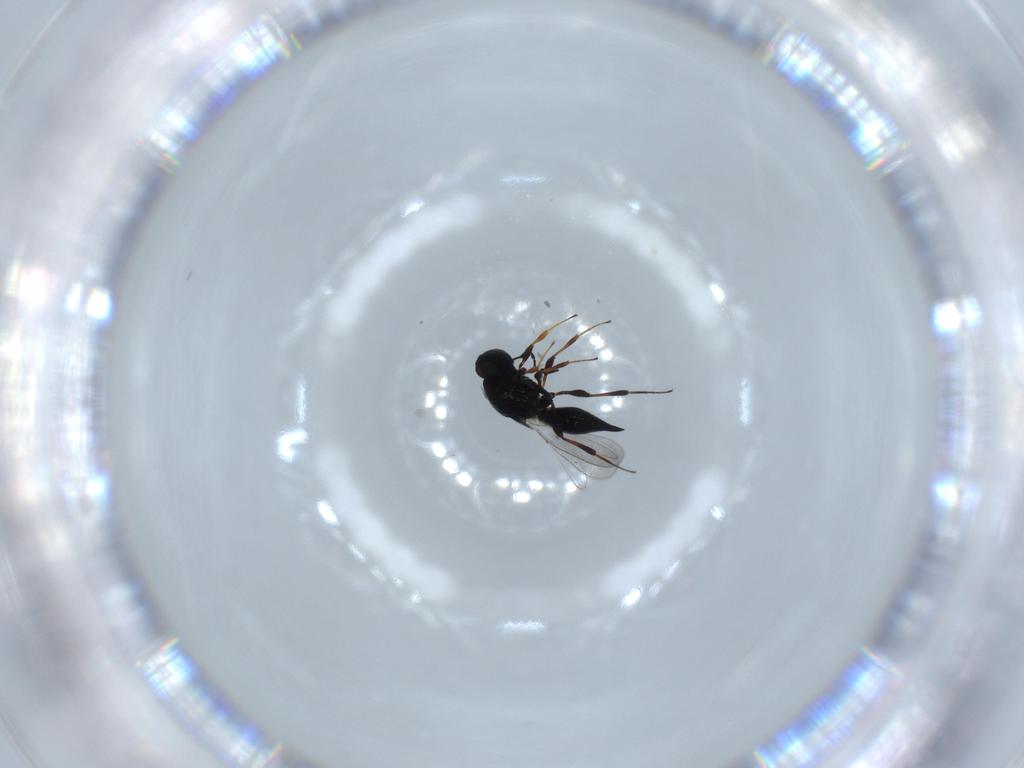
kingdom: Animalia
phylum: Arthropoda
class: Insecta
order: Hymenoptera
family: Platygastridae
